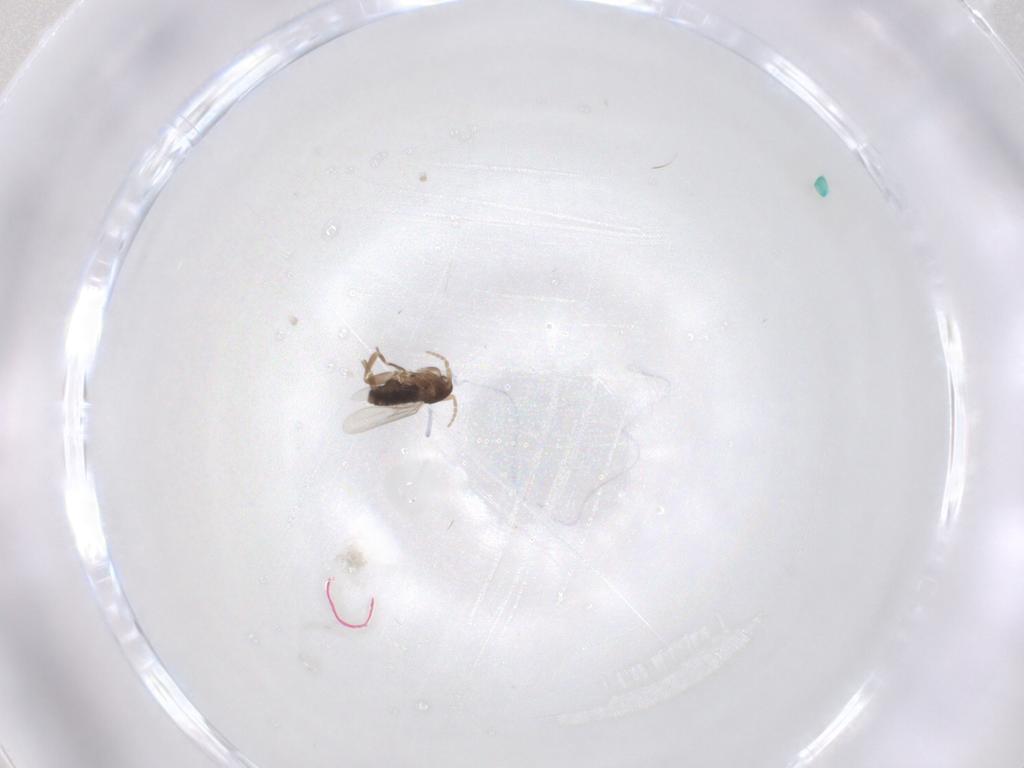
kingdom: Animalia
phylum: Arthropoda
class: Insecta
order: Diptera
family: Phoridae
